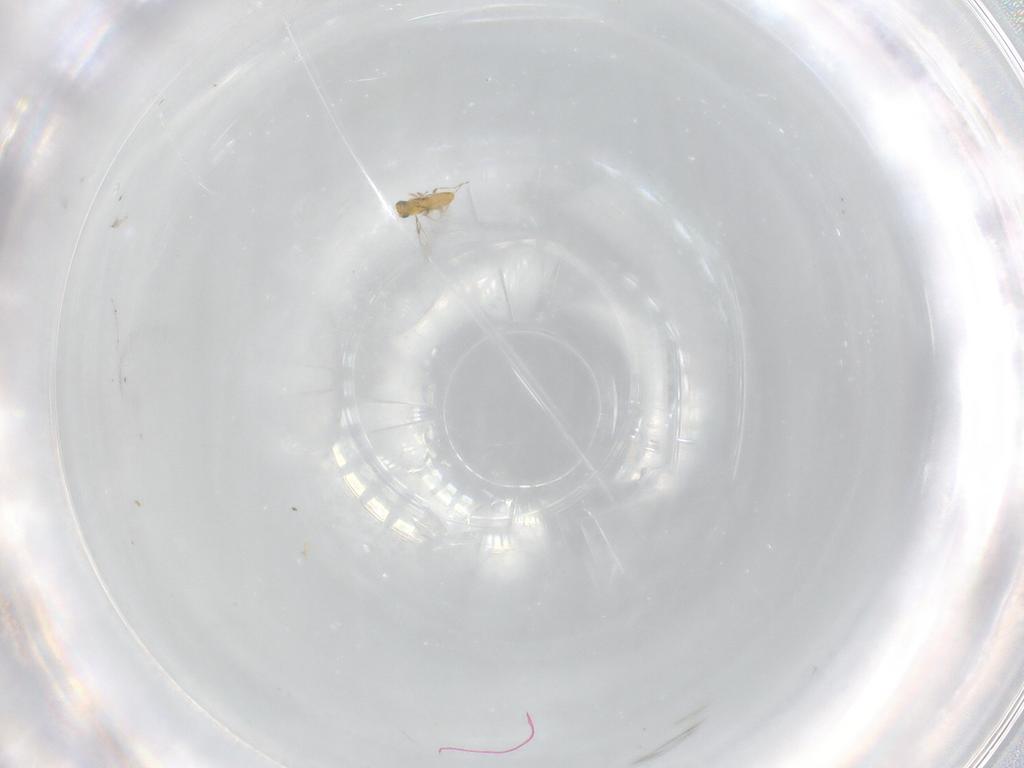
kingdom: Animalia
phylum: Arthropoda
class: Insecta
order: Hymenoptera
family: Trichogrammatidae
